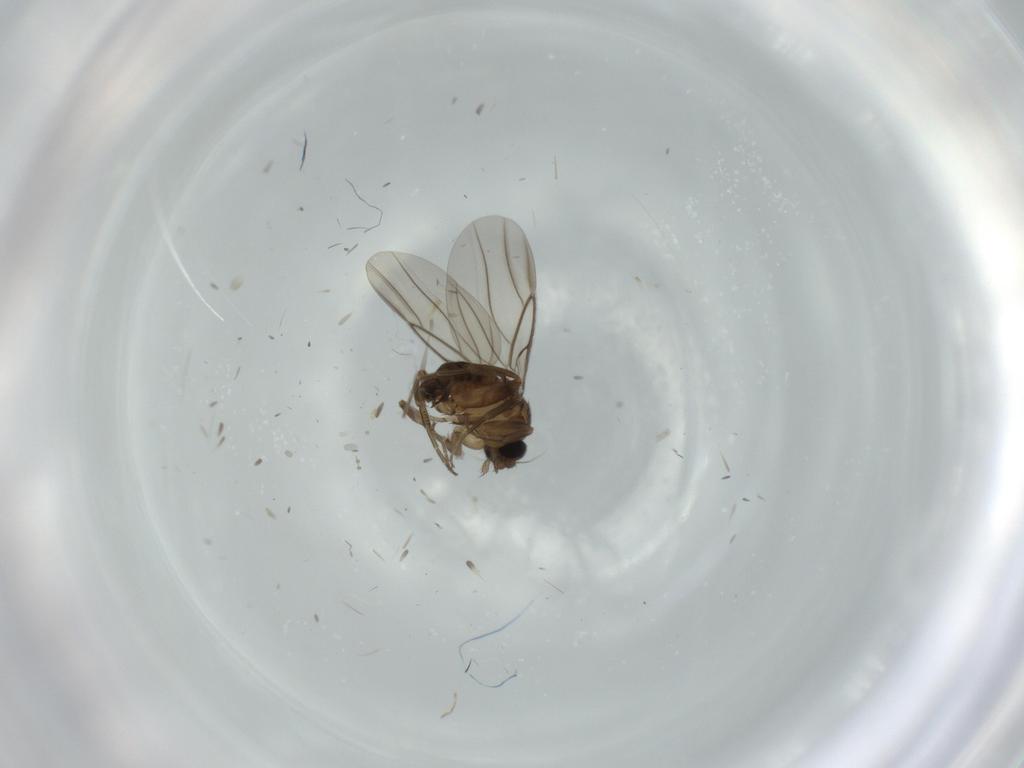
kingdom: Animalia
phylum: Arthropoda
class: Insecta
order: Diptera
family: Phoridae
